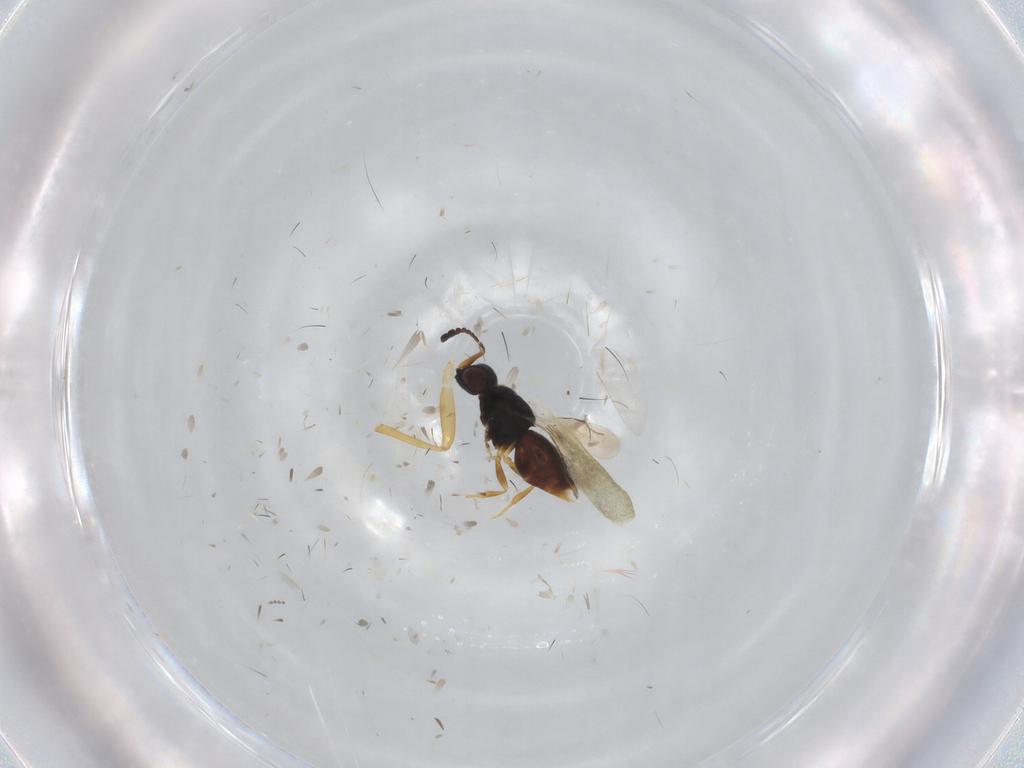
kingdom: Animalia
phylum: Arthropoda
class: Insecta
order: Hymenoptera
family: Ichneumonidae
